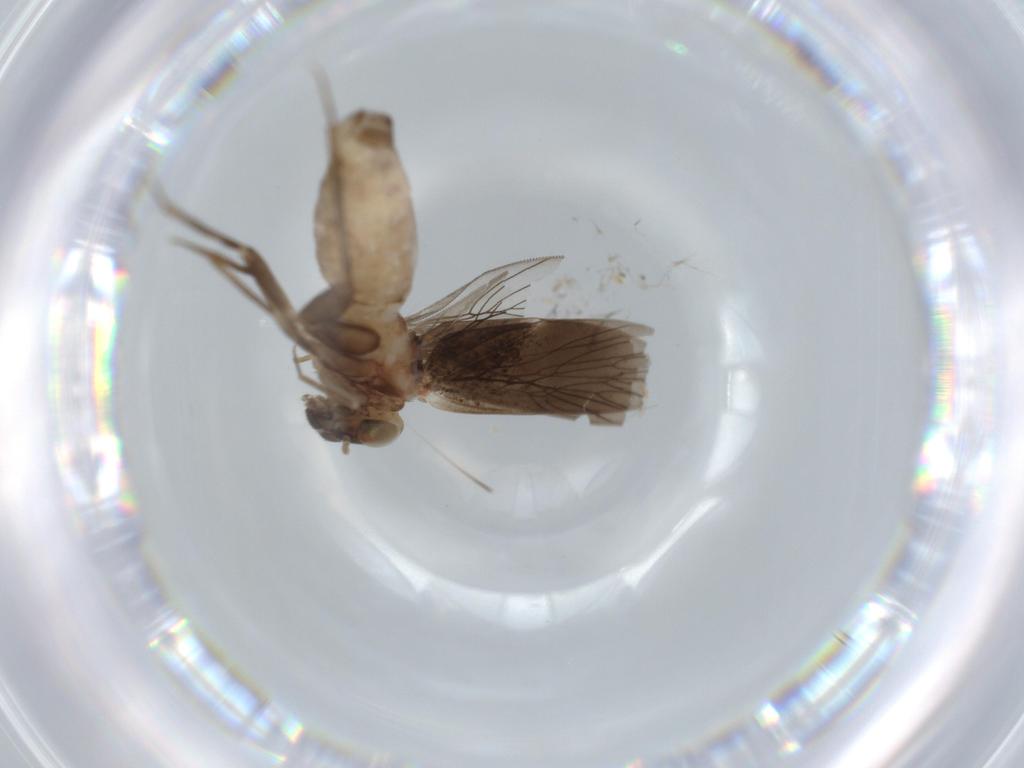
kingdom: Animalia
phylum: Arthropoda
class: Insecta
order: Psocodea
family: Lepidopsocidae
